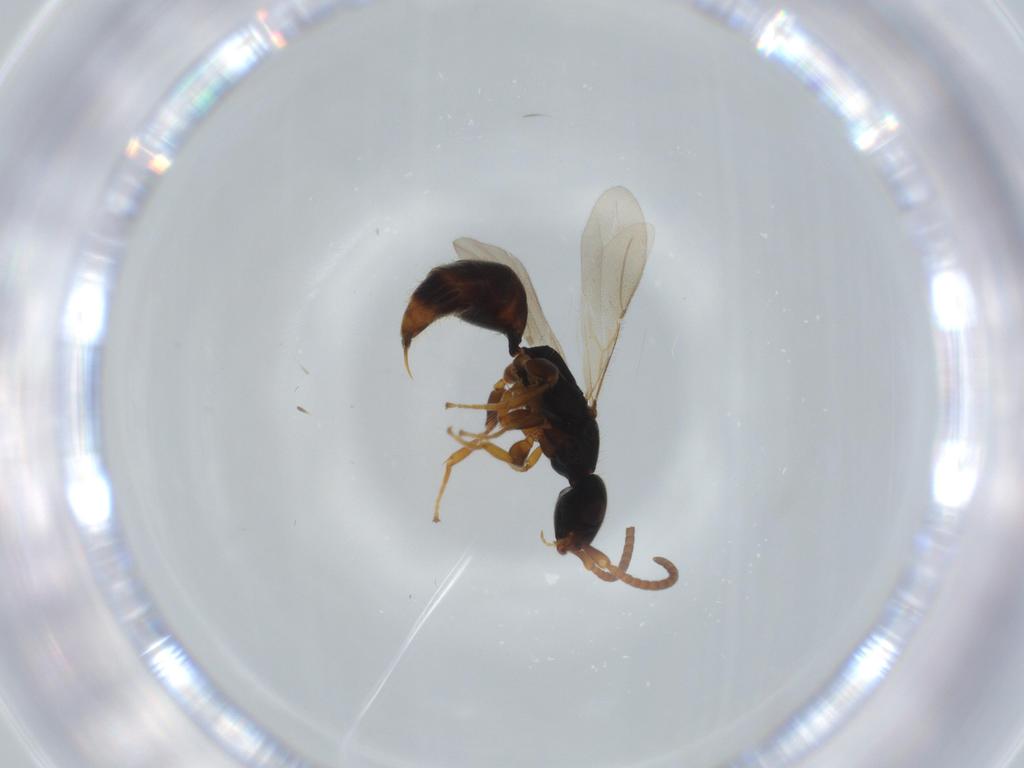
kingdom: Animalia
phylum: Arthropoda
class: Insecta
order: Hymenoptera
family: Bethylidae
